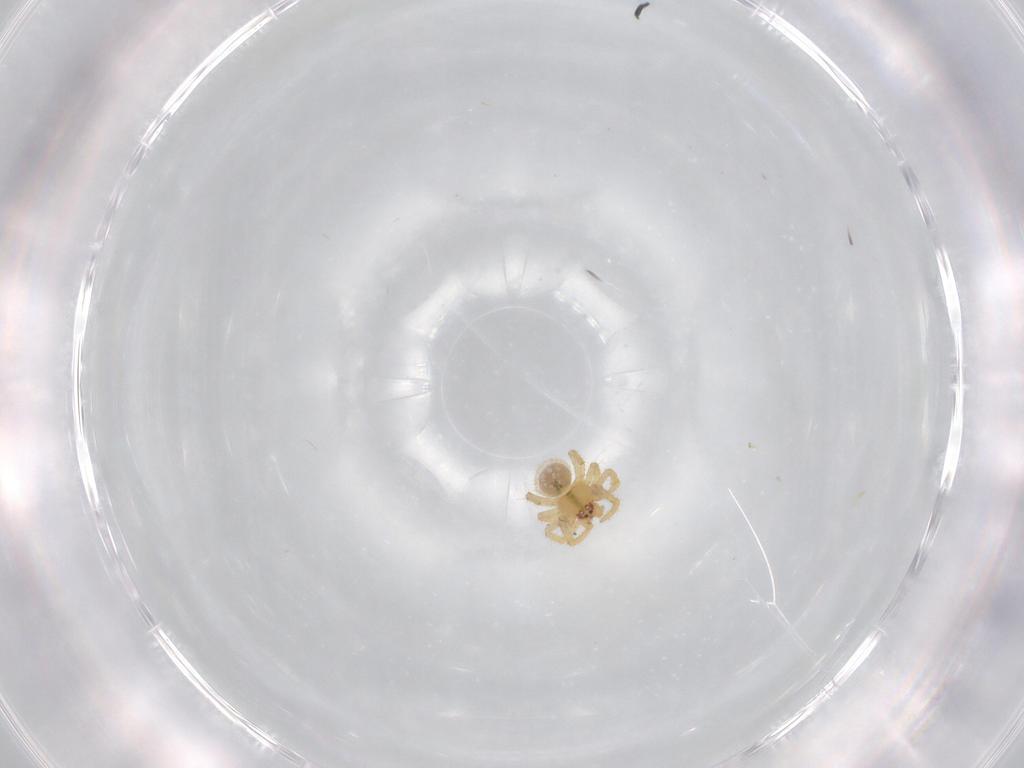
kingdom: Animalia
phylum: Arthropoda
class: Arachnida
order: Araneae
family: Theridiidae
